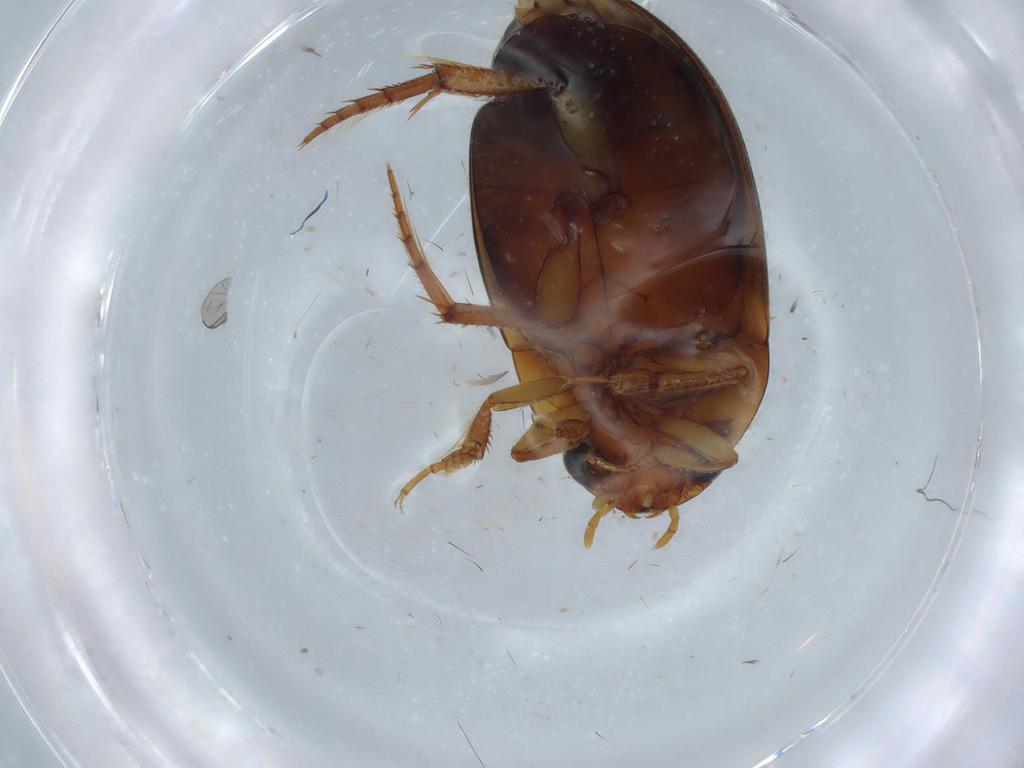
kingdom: Animalia
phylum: Arthropoda
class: Insecta
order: Coleoptera
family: Dytiscidae
